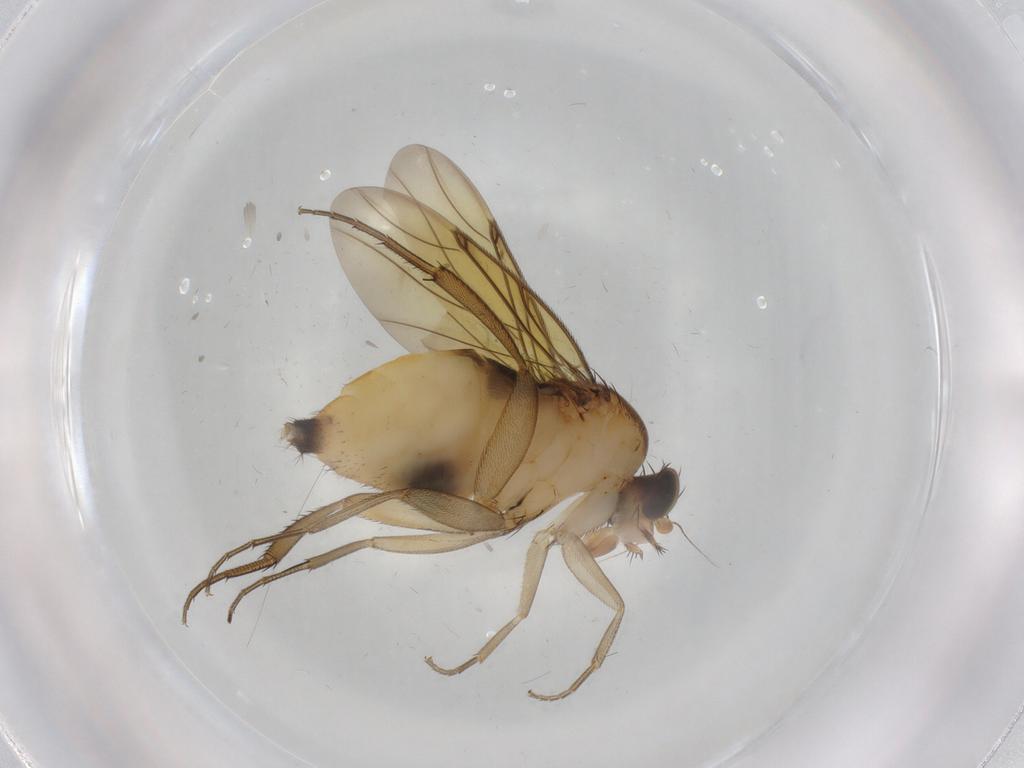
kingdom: Animalia
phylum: Arthropoda
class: Insecta
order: Diptera
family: Phoridae
